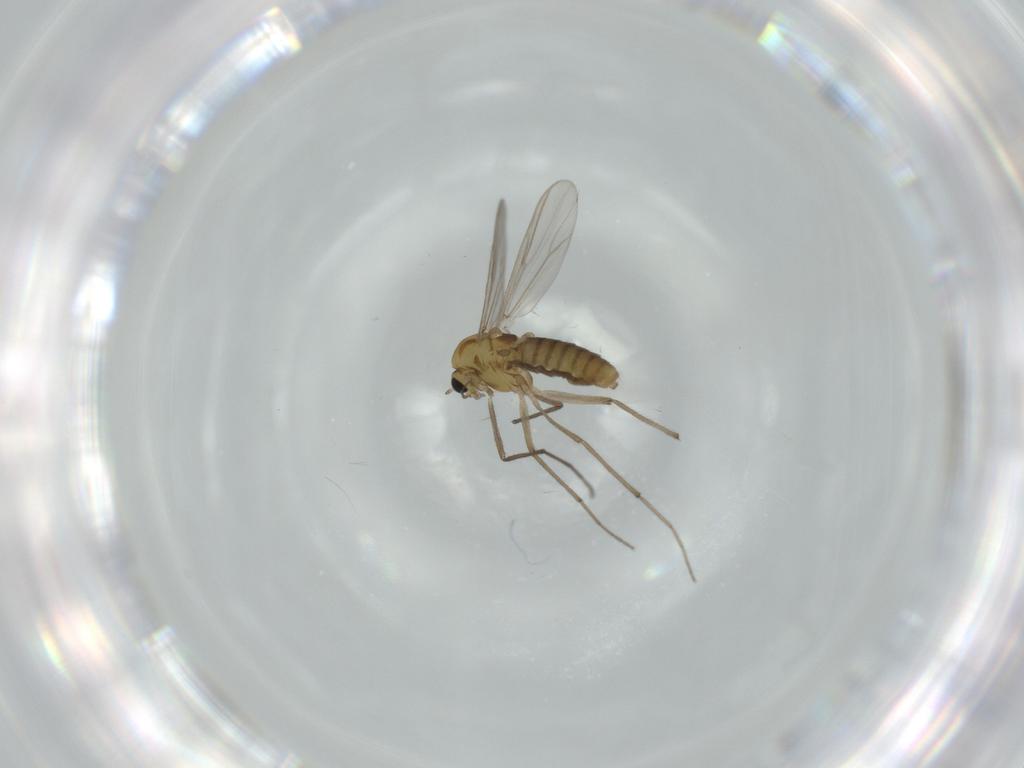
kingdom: Animalia
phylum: Arthropoda
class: Insecta
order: Diptera
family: Chironomidae
